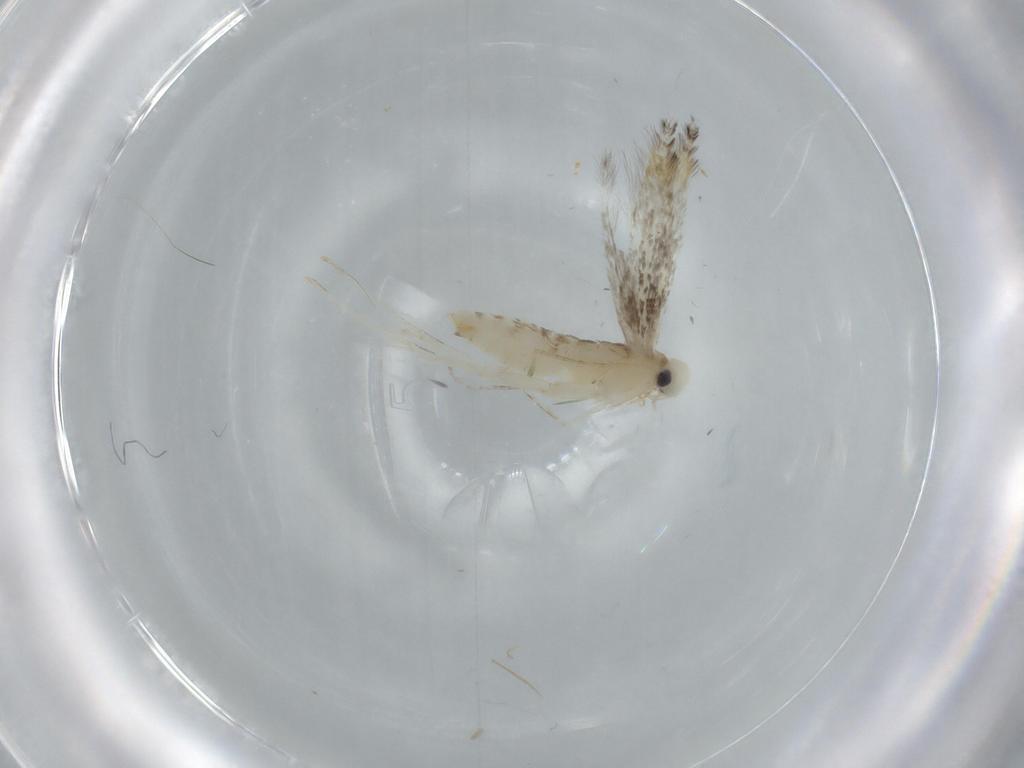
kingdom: Animalia
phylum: Arthropoda
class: Insecta
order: Lepidoptera
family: Gracillariidae
